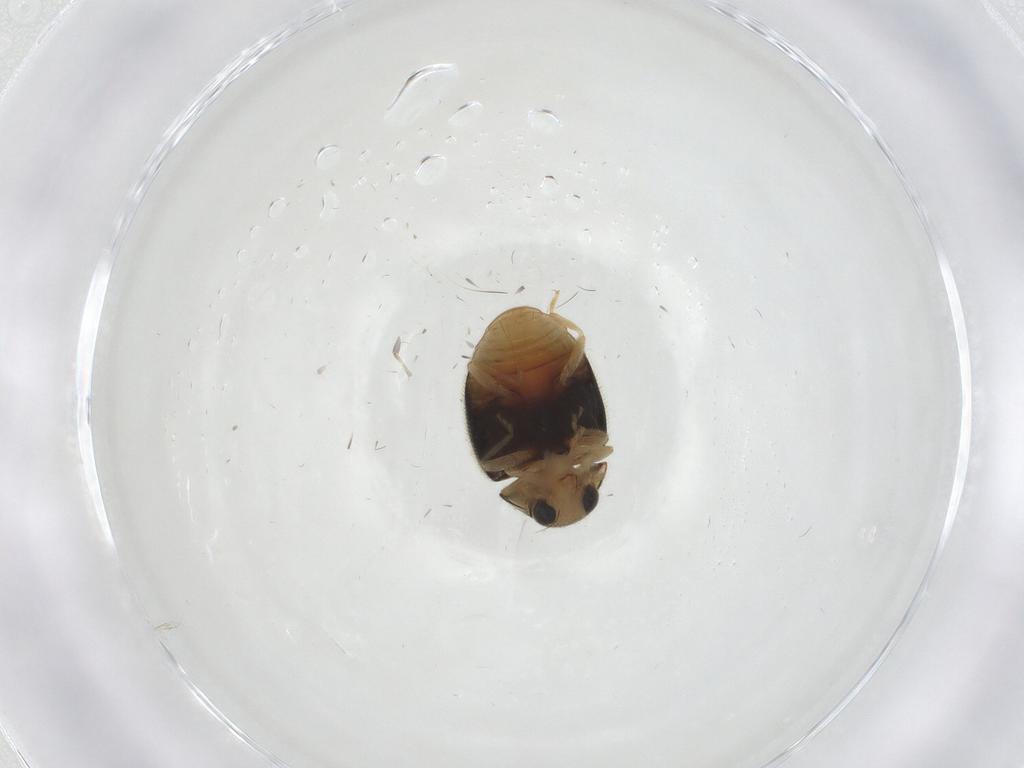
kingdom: Animalia
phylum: Arthropoda
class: Insecta
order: Coleoptera
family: Coccinellidae
